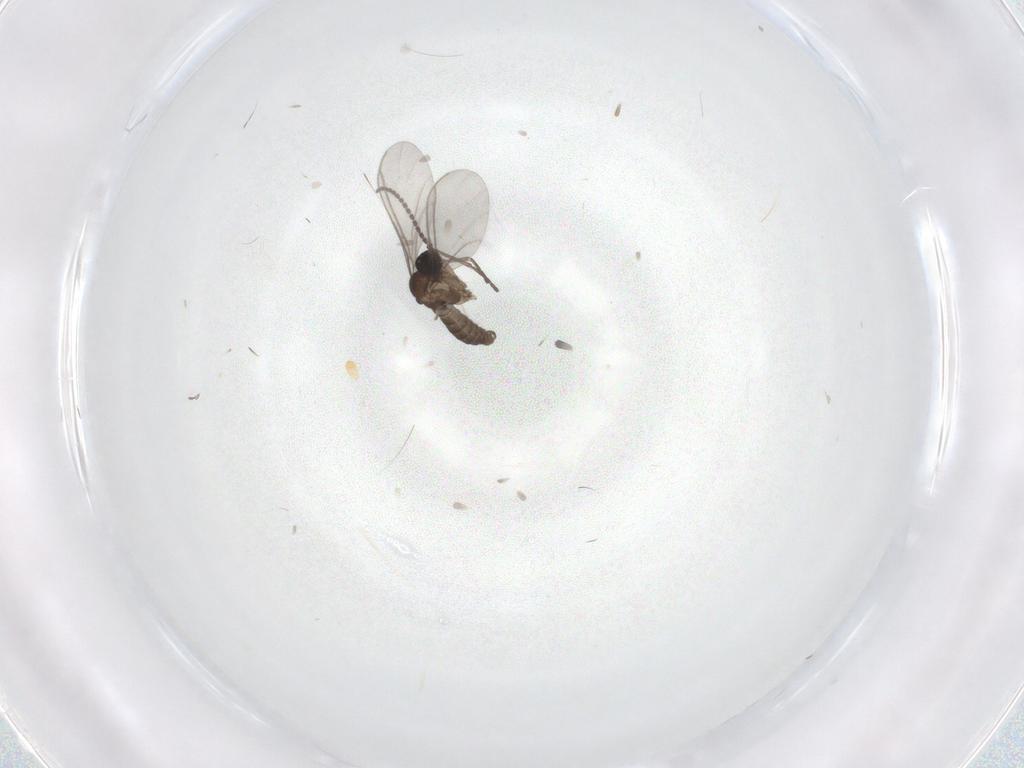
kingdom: Animalia
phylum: Arthropoda
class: Insecta
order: Diptera
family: Sciaridae
